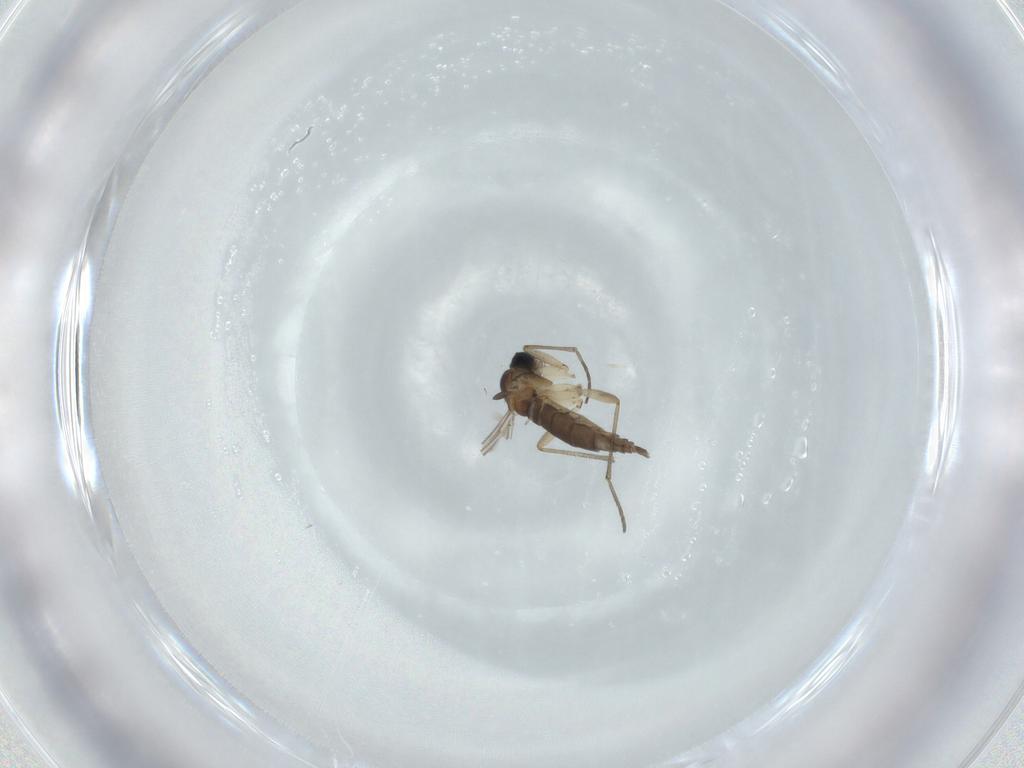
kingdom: Animalia
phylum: Arthropoda
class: Insecta
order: Diptera
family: Sciaridae
